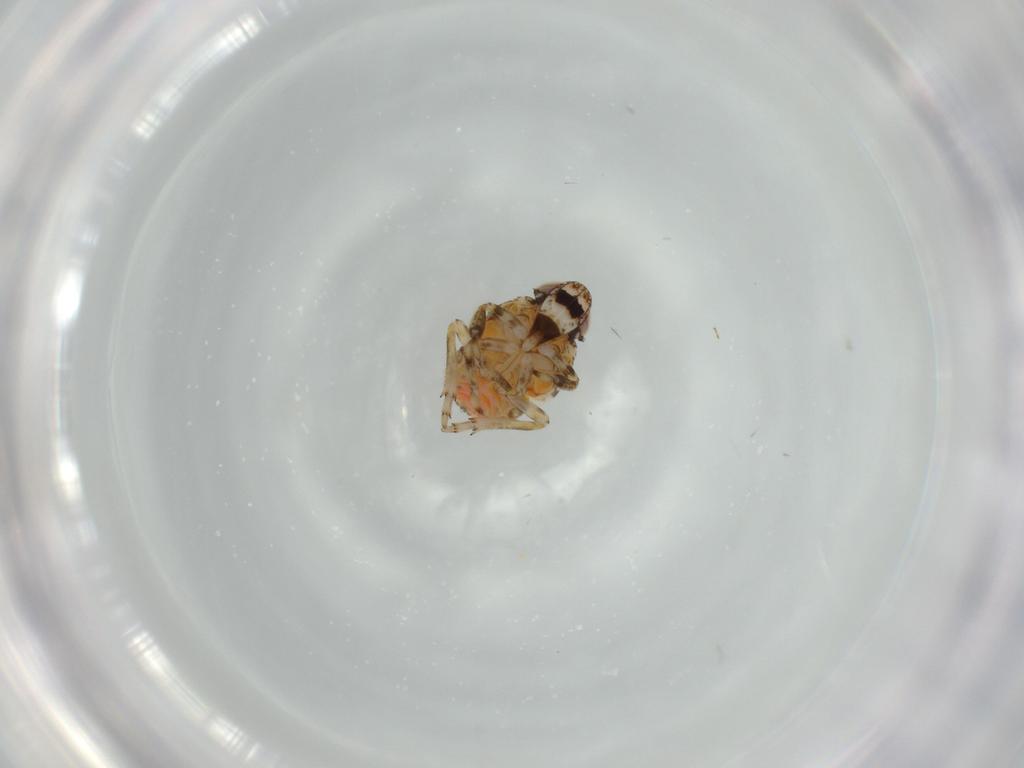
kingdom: Animalia
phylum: Arthropoda
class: Insecta
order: Hemiptera
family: Issidae
